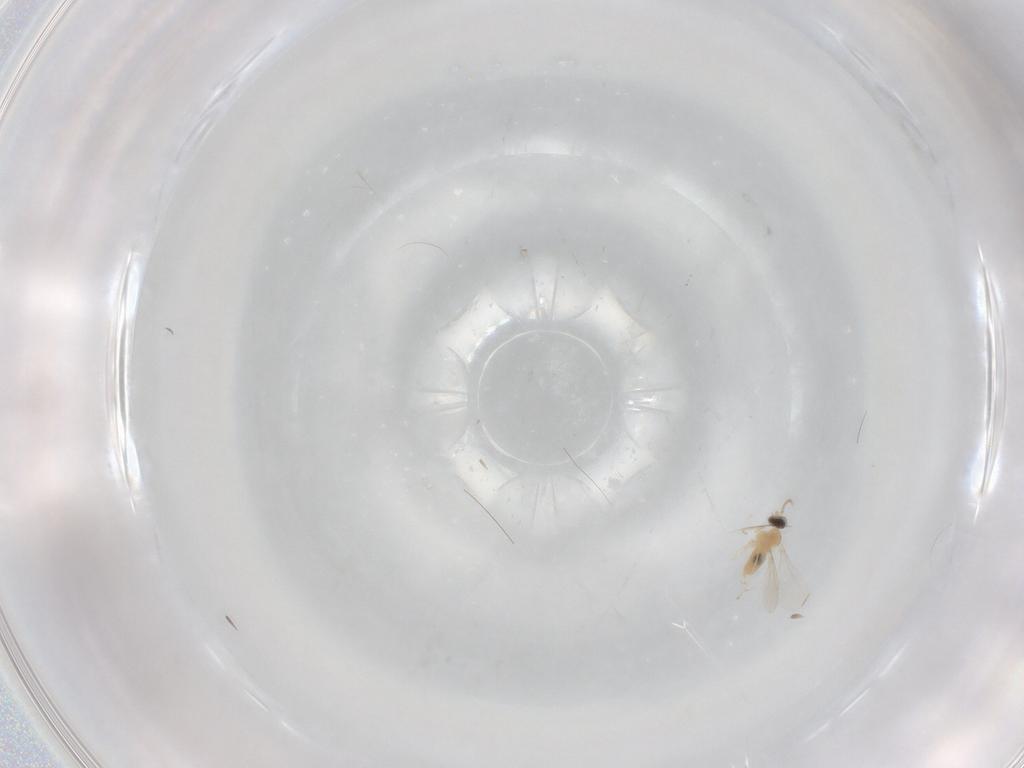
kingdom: Animalia
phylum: Arthropoda
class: Insecta
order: Diptera
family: Cecidomyiidae
